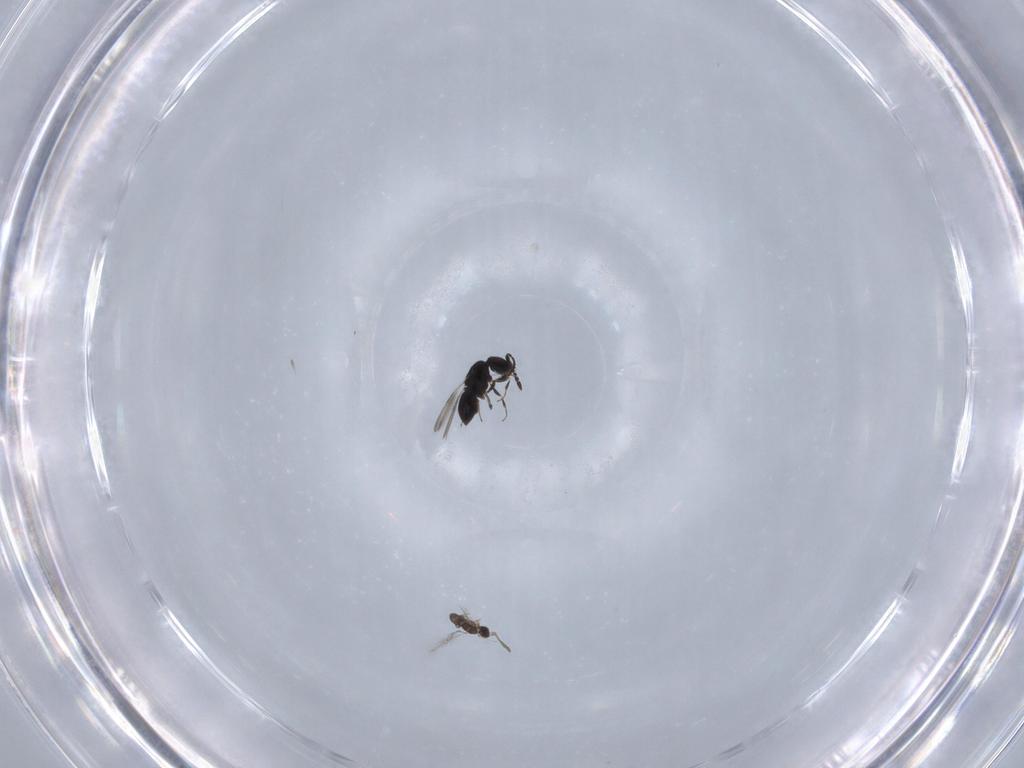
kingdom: Animalia
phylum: Arthropoda
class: Insecta
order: Hymenoptera
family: Mymaridae
